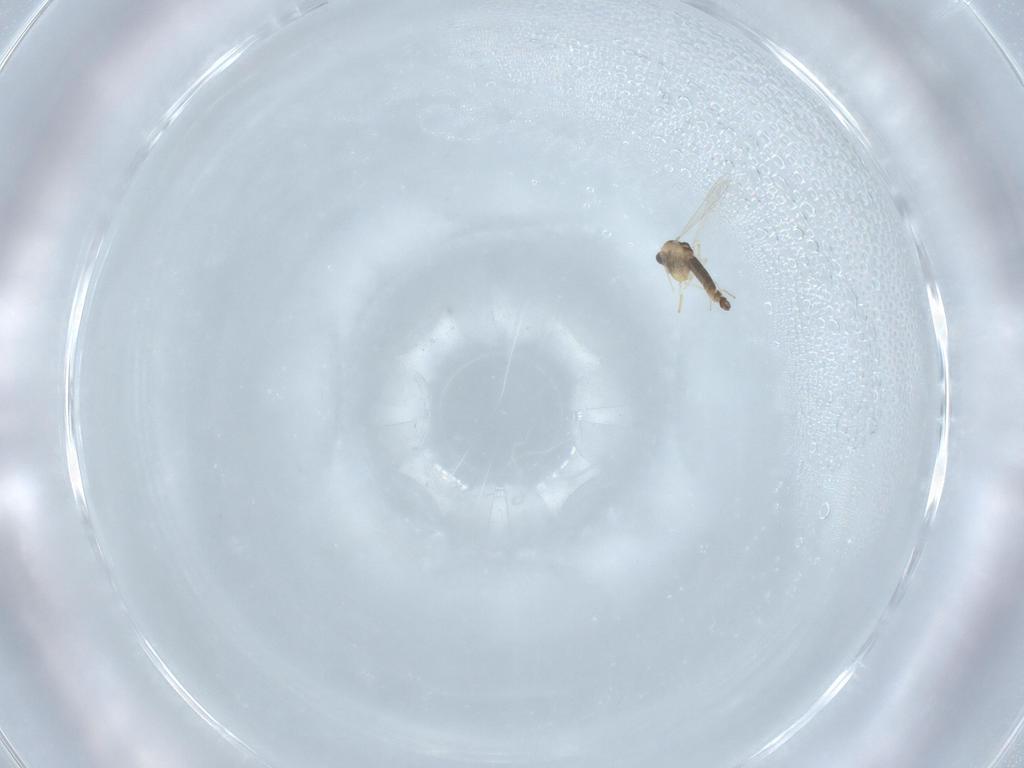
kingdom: Animalia
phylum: Arthropoda
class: Insecta
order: Diptera
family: Chironomidae
